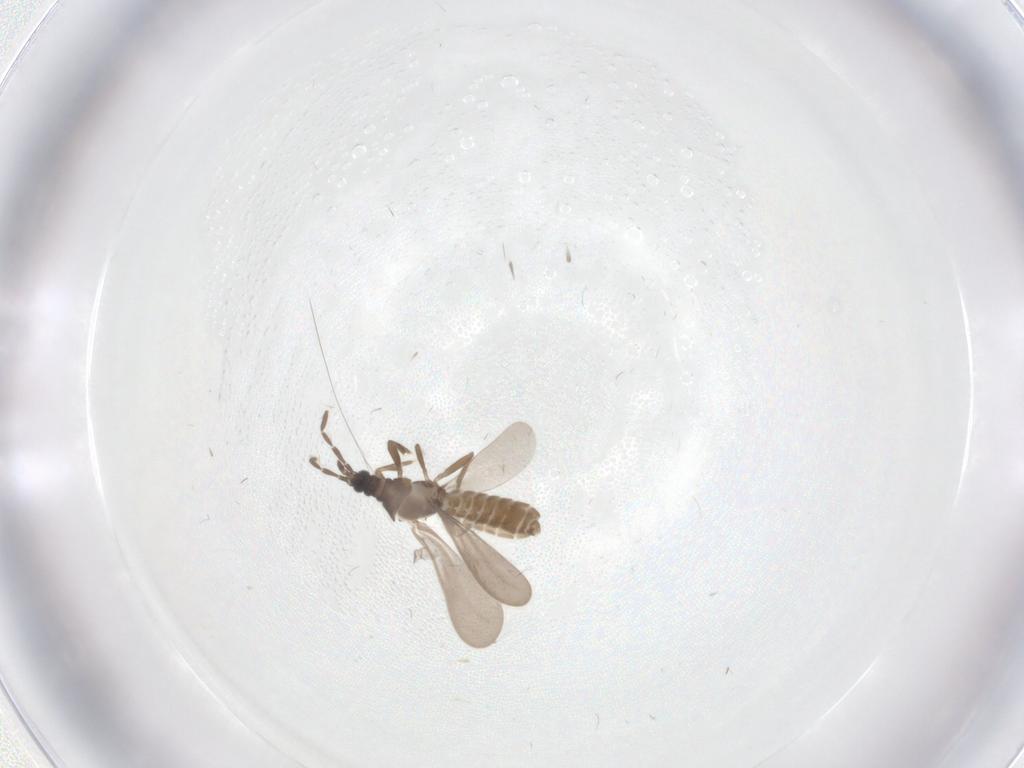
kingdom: Animalia
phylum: Arthropoda
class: Insecta
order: Hemiptera
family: Enicocephalidae
